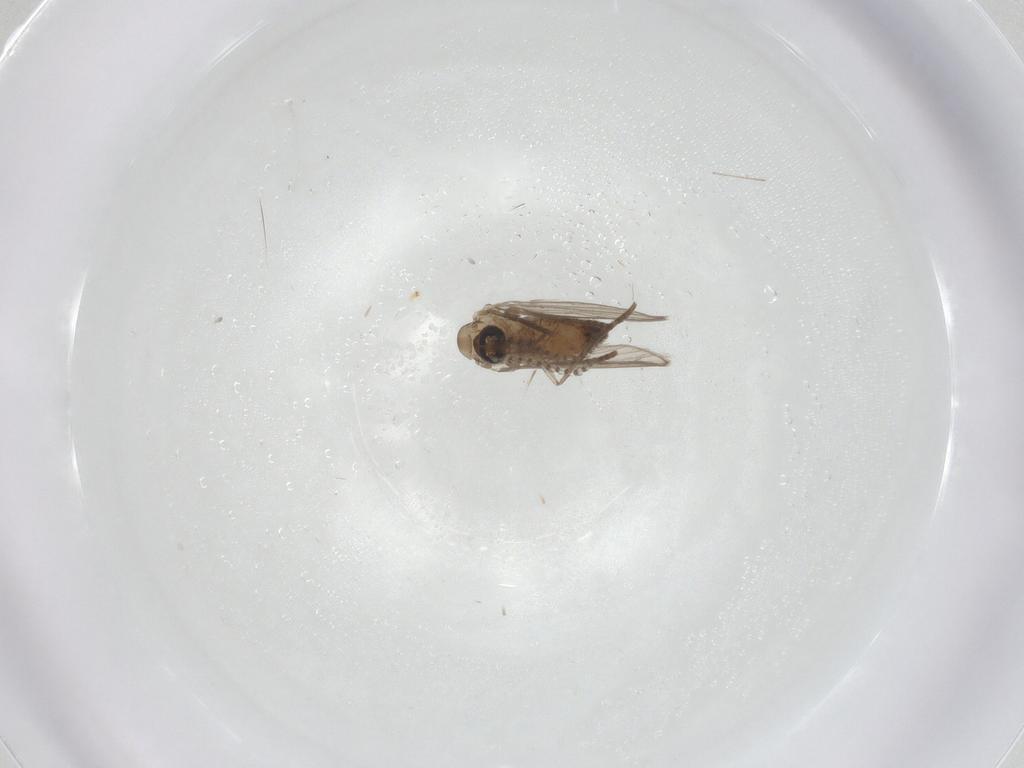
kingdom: Animalia
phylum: Arthropoda
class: Insecta
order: Diptera
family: Psychodidae
